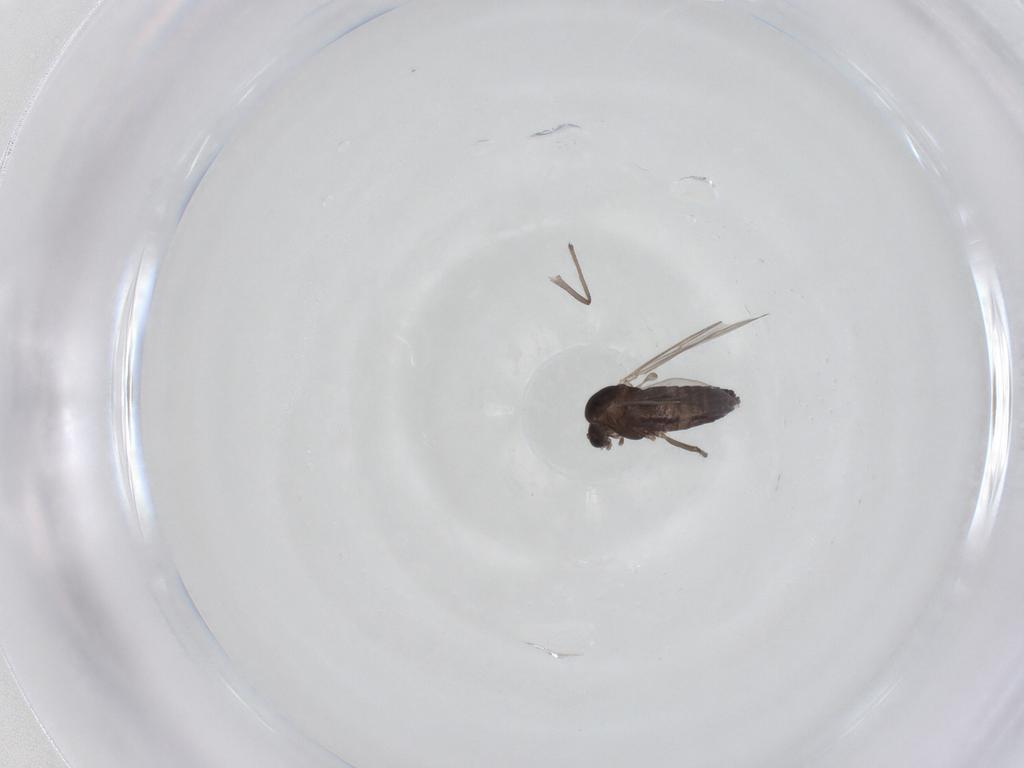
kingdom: Animalia
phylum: Arthropoda
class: Insecta
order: Diptera
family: Chironomidae
